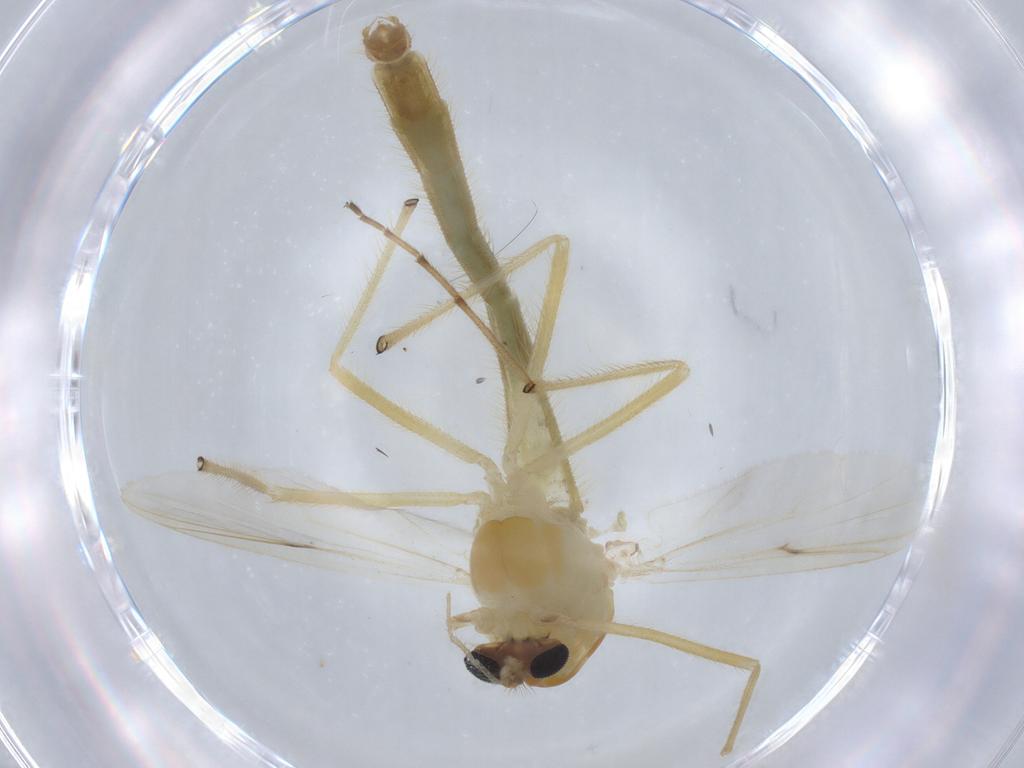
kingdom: Animalia
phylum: Arthropoda
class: Insecta
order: Diptera
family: Chironomidae
